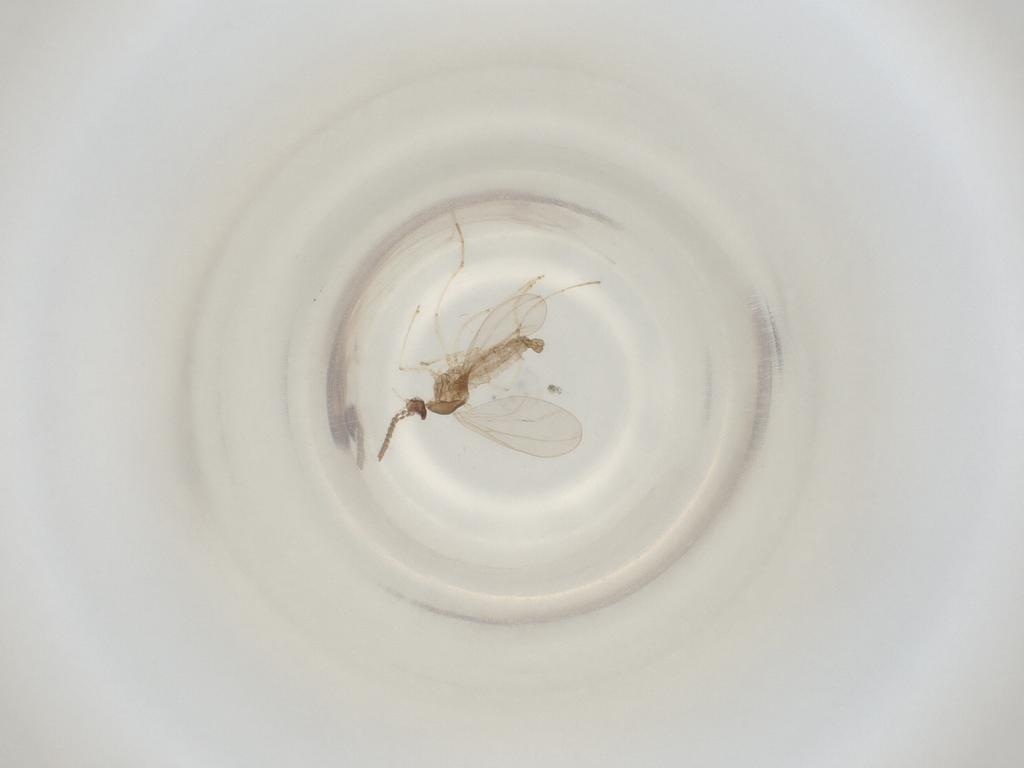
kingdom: Animalia
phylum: Arthropoda
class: Insecta
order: Diptera
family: Cecidomyiidae
